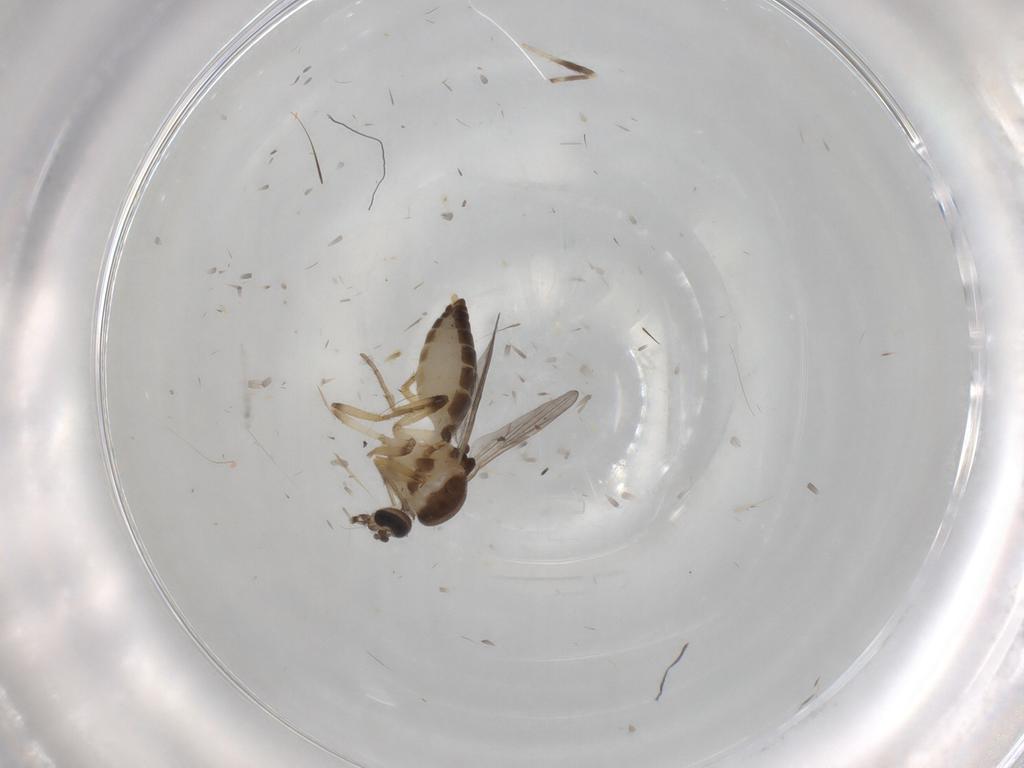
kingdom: Animalia
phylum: Arthropoda
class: Insecta
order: Diptera
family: Ceratopogonidae
